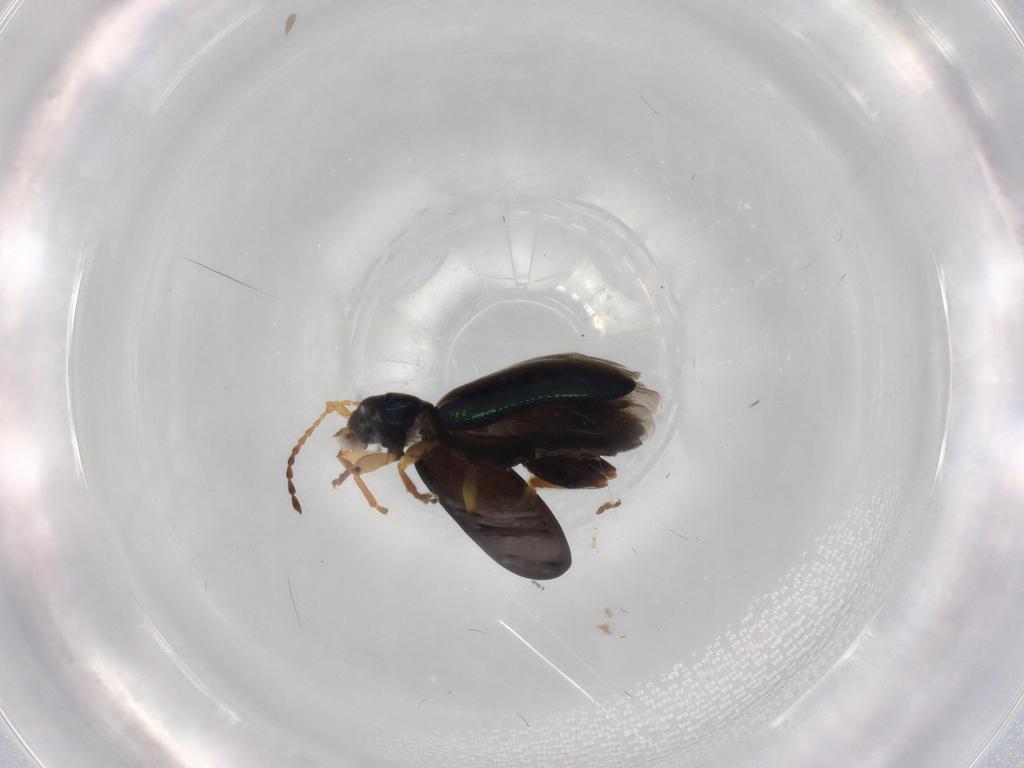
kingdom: Animalia
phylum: Arthropoda
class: Insecta
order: Coleoptera
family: Chrysomelidae
